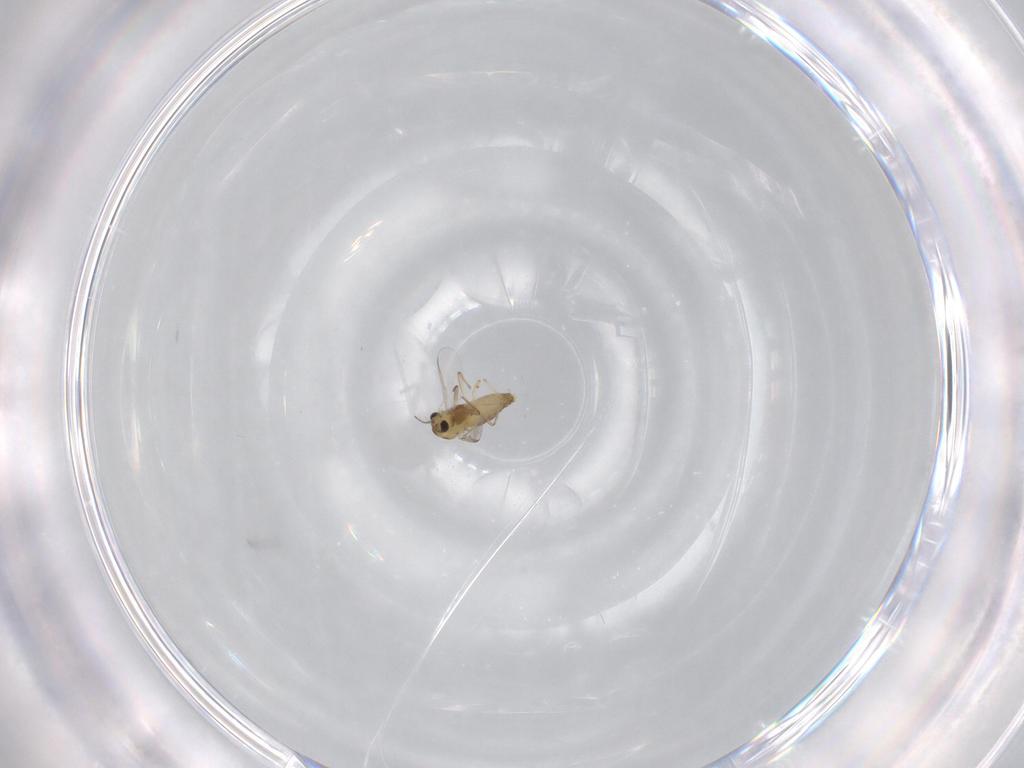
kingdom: Animalia
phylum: Arthropoda
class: Insecta
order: Diptera
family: Chironomidae
